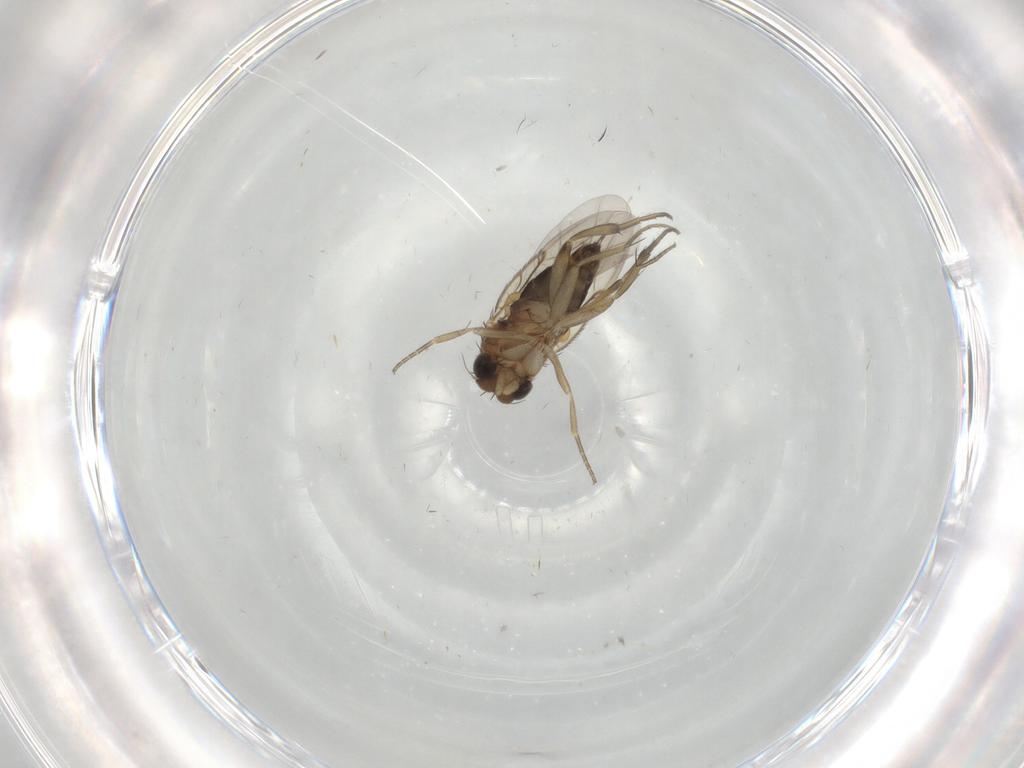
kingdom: Animalia
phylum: Arthropoda
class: Insecta
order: Diptera
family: Phoridae
